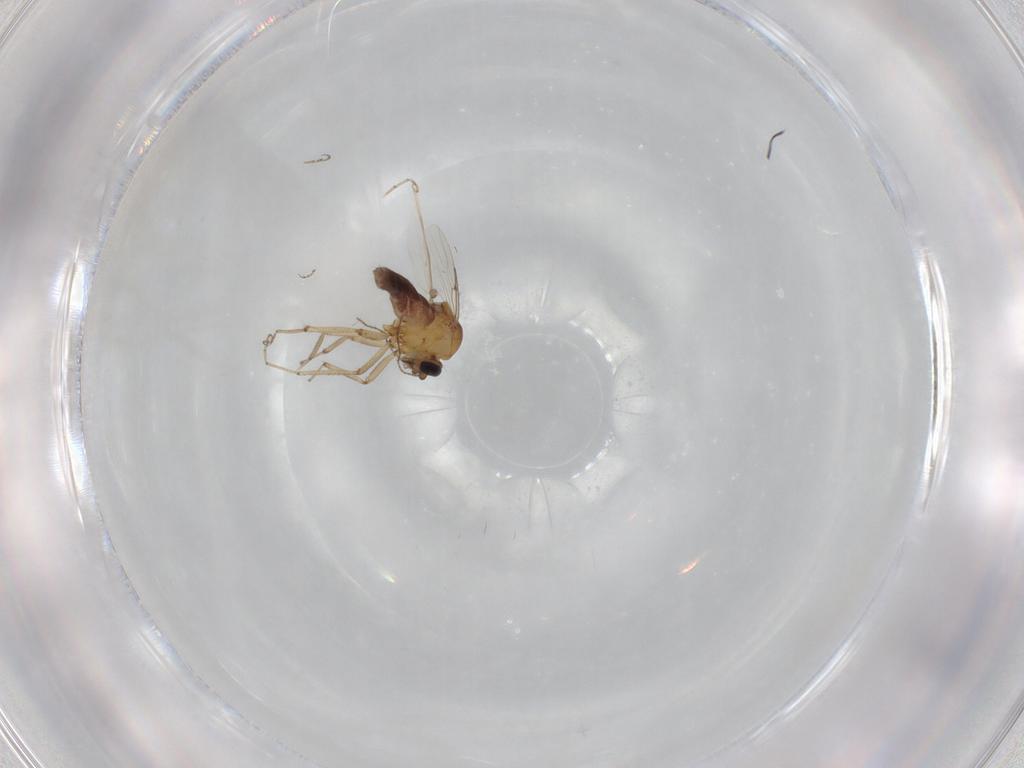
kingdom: Animalia
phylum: Arthropoda
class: Insecta
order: Diptera
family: Ceratopogonidae
